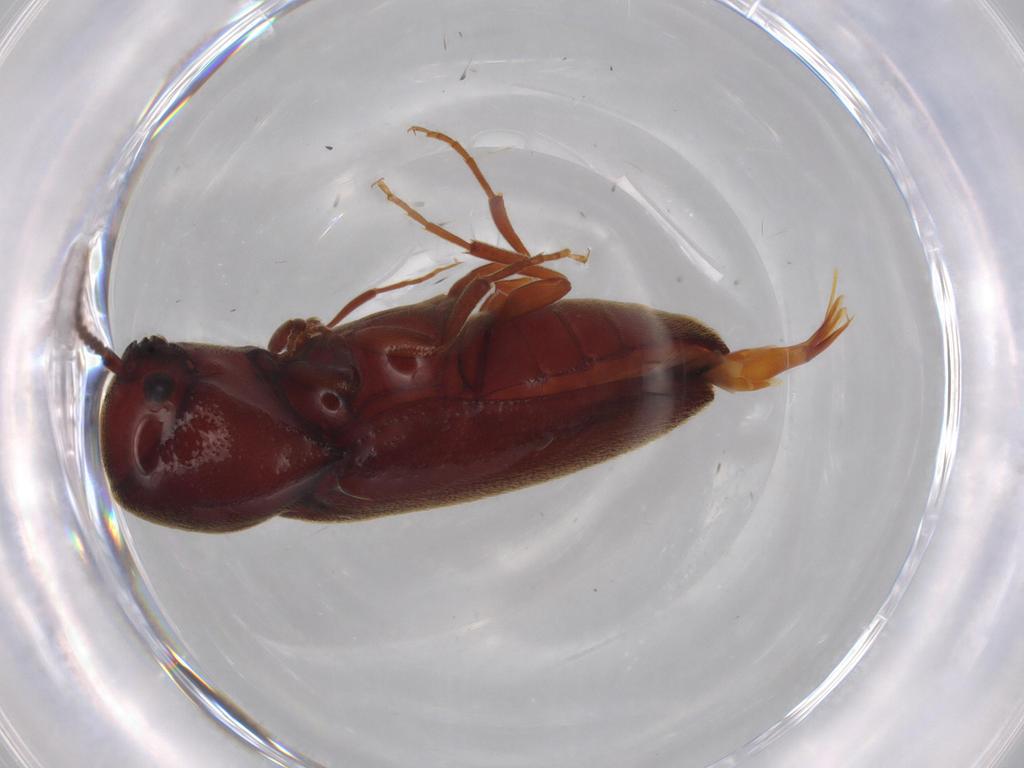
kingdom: Animalia
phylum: Arthropoda
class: Insecta
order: Coleoptera
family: Eucnemidae
